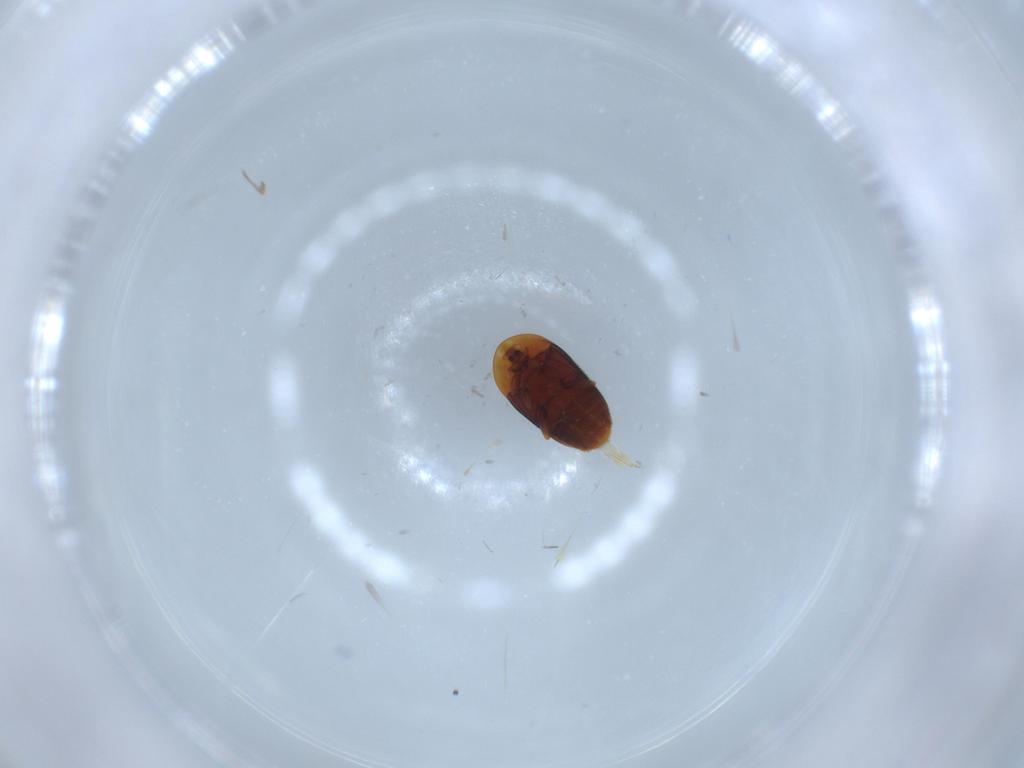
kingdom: Animalia
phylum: Arthropoda
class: Insecta
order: Coleoptera
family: Corylophidae
